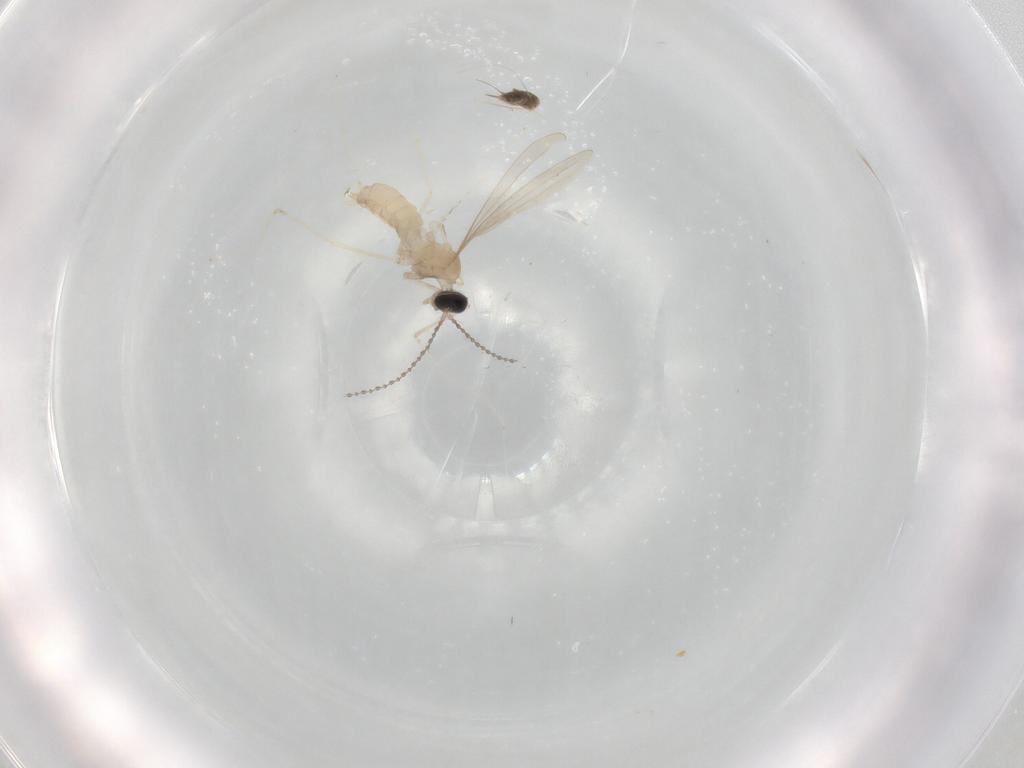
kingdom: Animalia
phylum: Arthropoda
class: Insecta
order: Diptera
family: Cecidomyiidae
